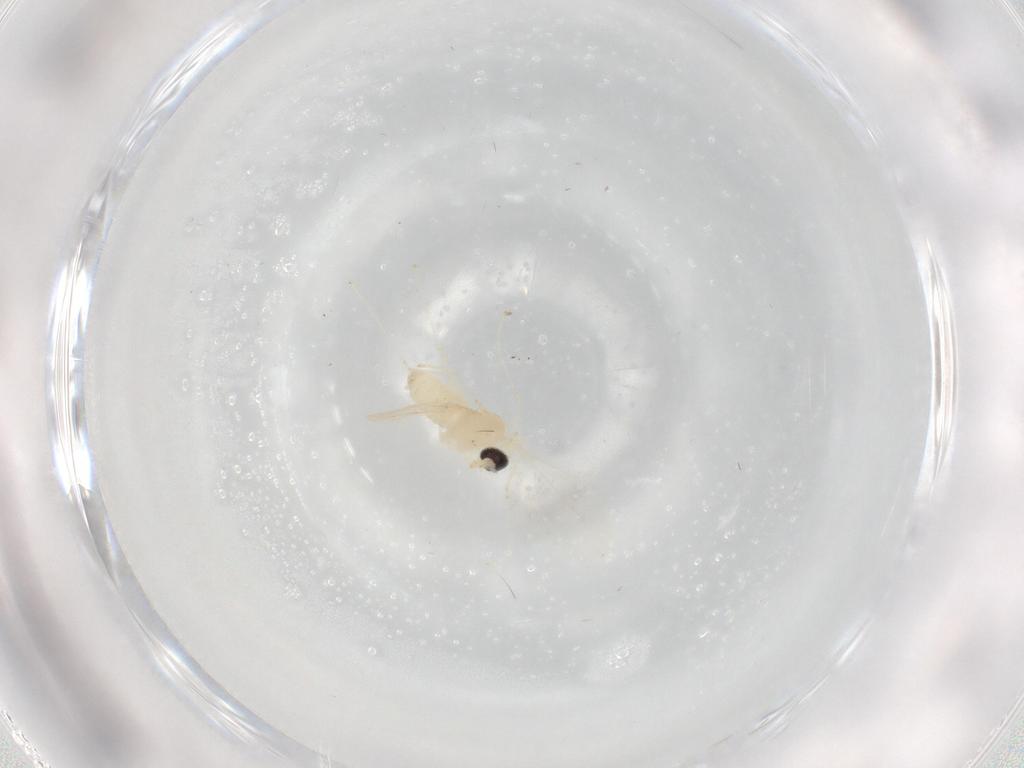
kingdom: Animalia
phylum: Arthropoda
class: Insecta
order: Diptera
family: Cecidomyiidae
